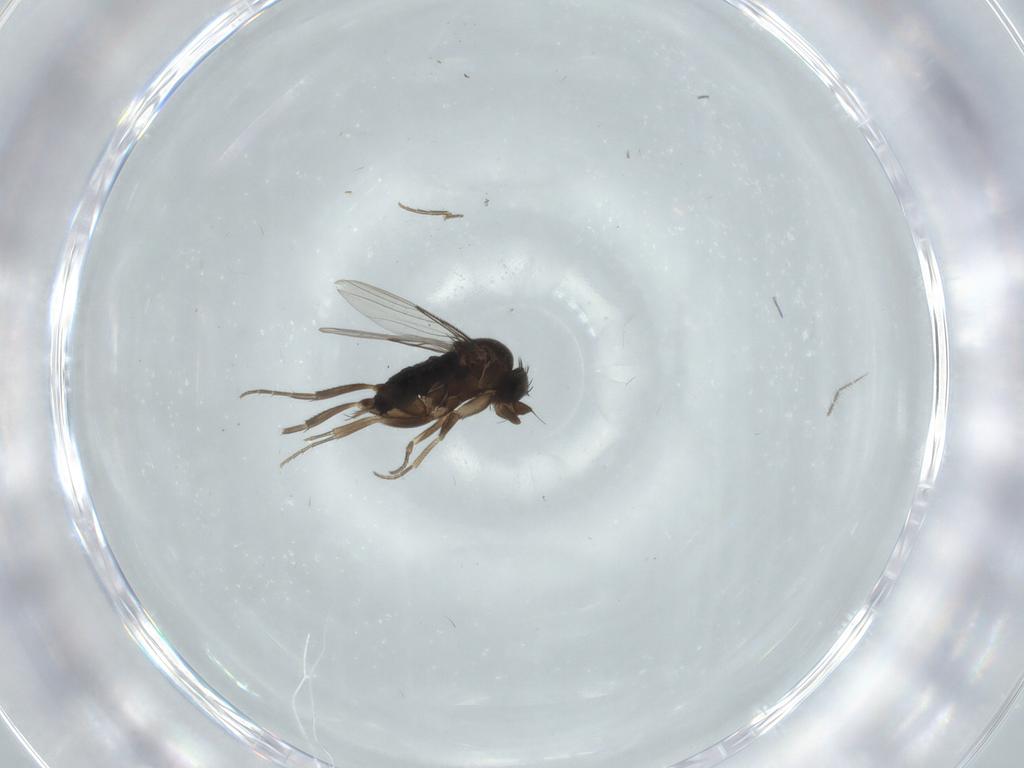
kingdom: Animalia
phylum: Arthropoda
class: Insecta
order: Diptera
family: Phoridae
